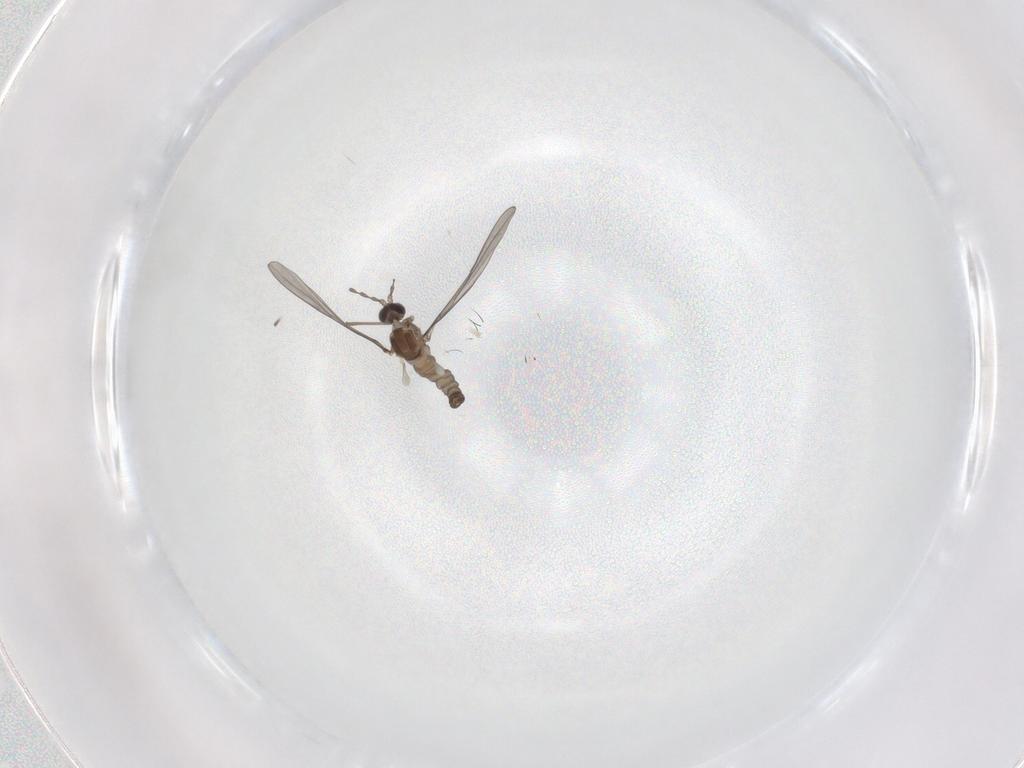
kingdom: Animalia
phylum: Arthropoda
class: Insecta
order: Diptera
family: Cecidomyiidae
